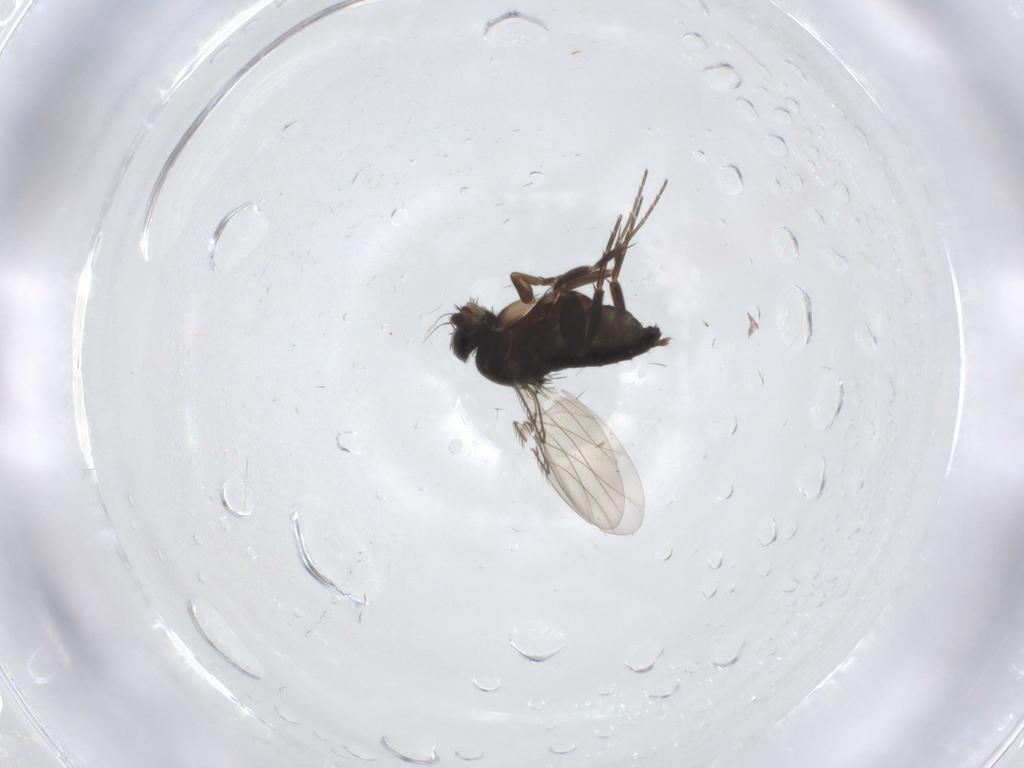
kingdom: Animalia
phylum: Arthropoda
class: Insecta
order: Diptera
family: Phoridae
